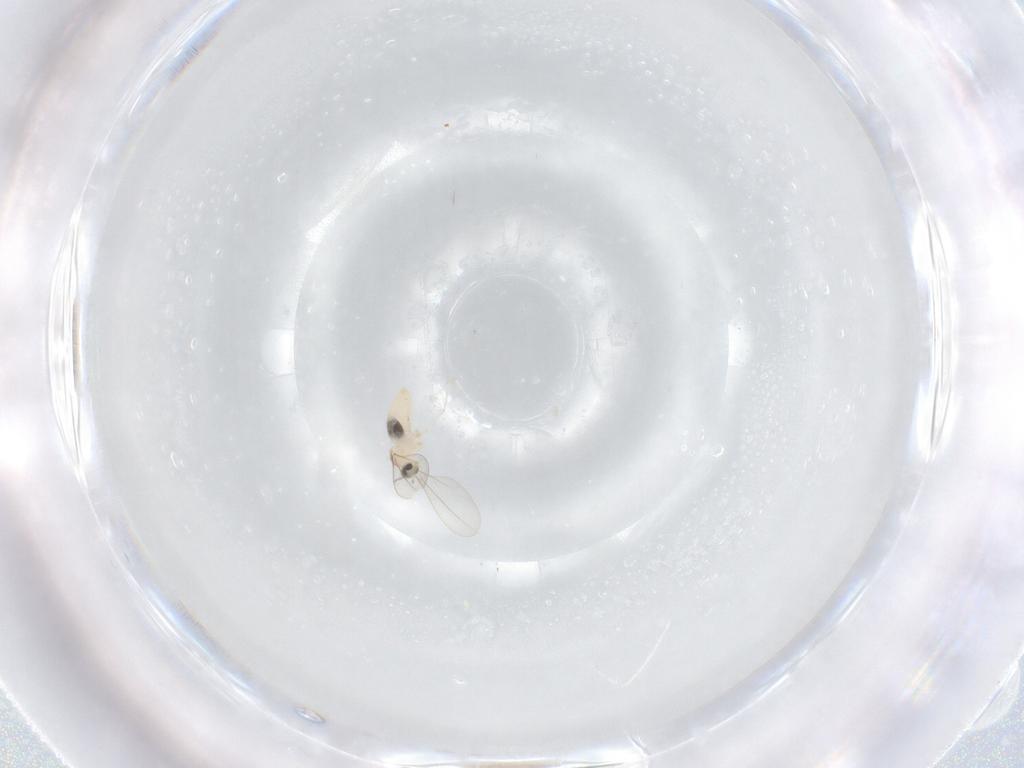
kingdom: Animalia
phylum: Arthropoda
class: Insecta
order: Diptera
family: Cecidomyiidae
